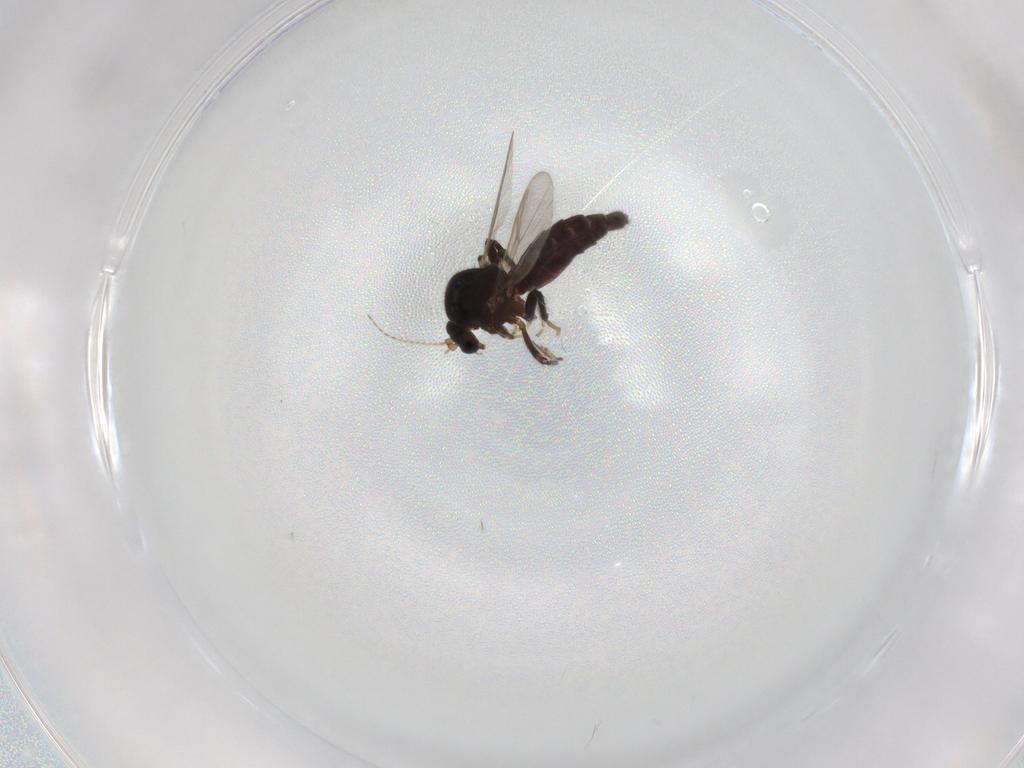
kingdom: Animalia
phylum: Arthropoda
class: Insecta
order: Diptera
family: Ceratopogonidae
